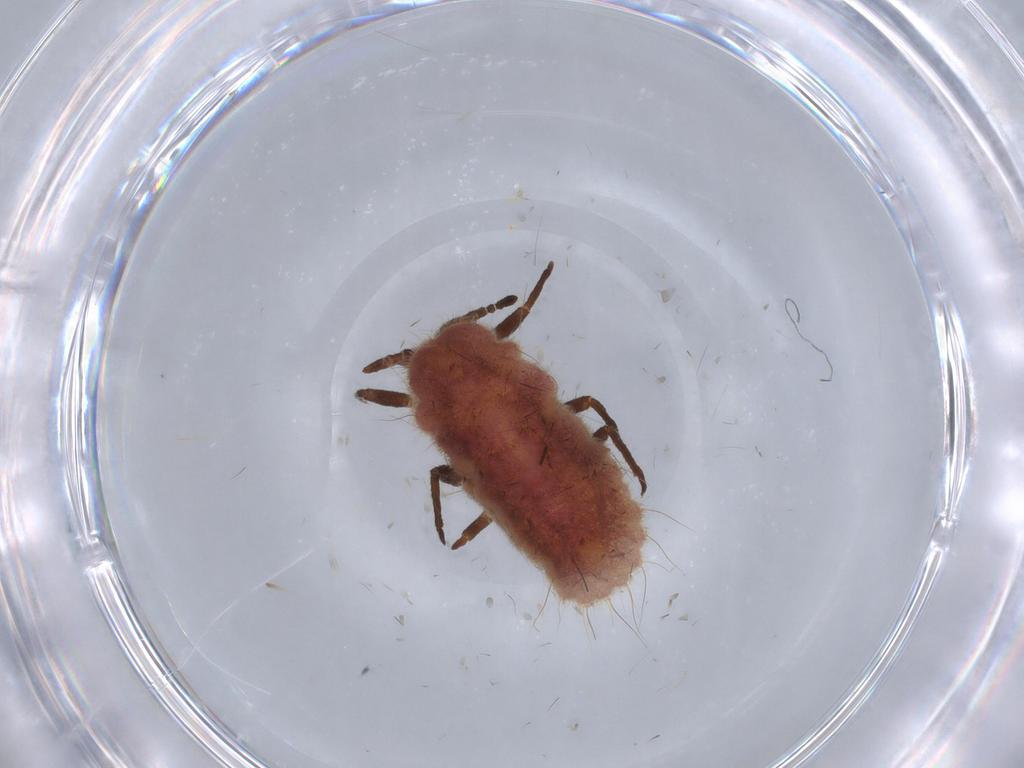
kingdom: Animalia
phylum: Arthropoda
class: Insecta
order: Hemiptera
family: Monophlebidae
